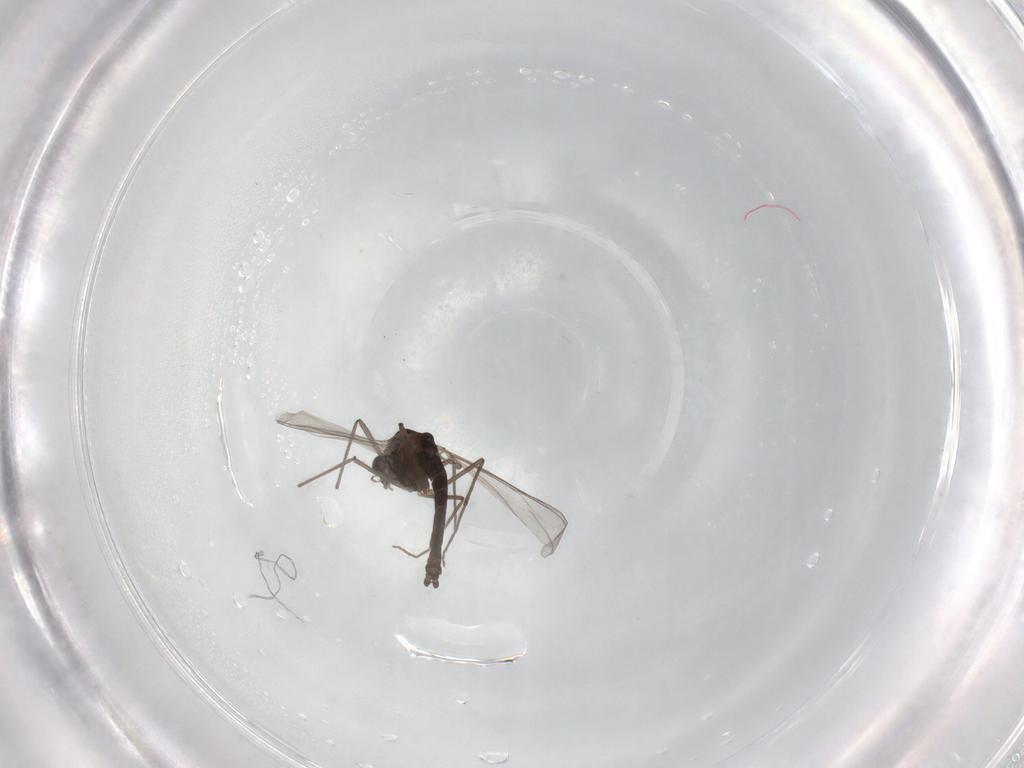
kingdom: Animalia
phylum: Arthropoda
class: Insecta
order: Diptera
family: Chironomidae
